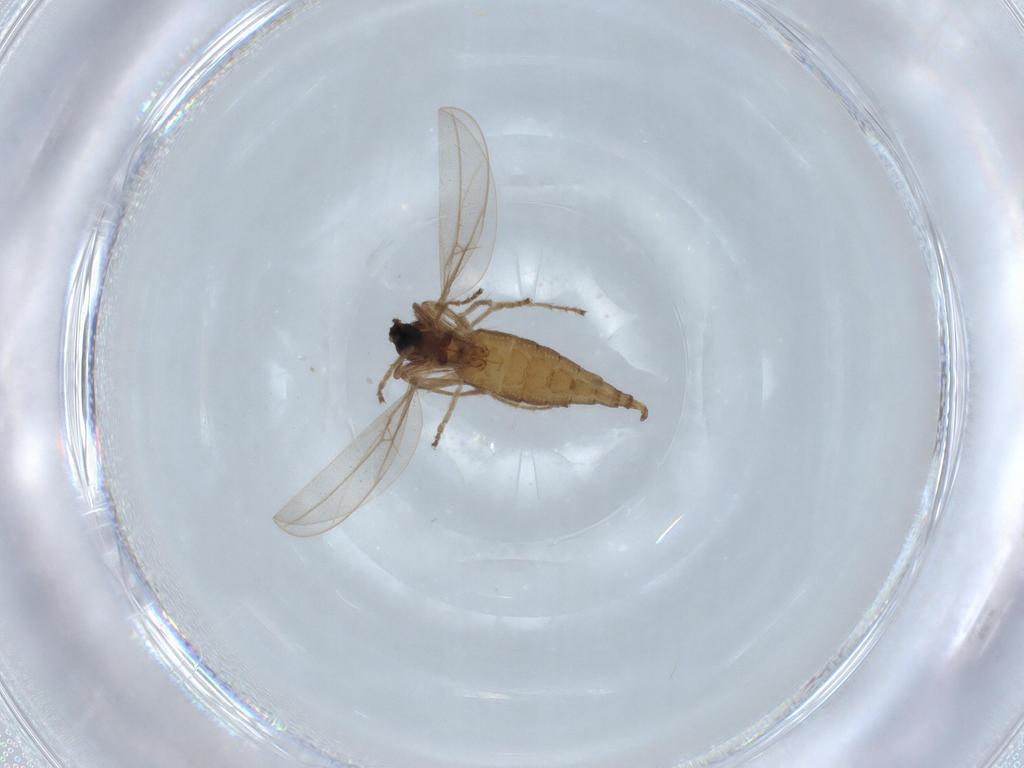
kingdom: Animalia
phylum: Arthropoda
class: Insecta
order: Diptera
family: Cecidomyiidae
